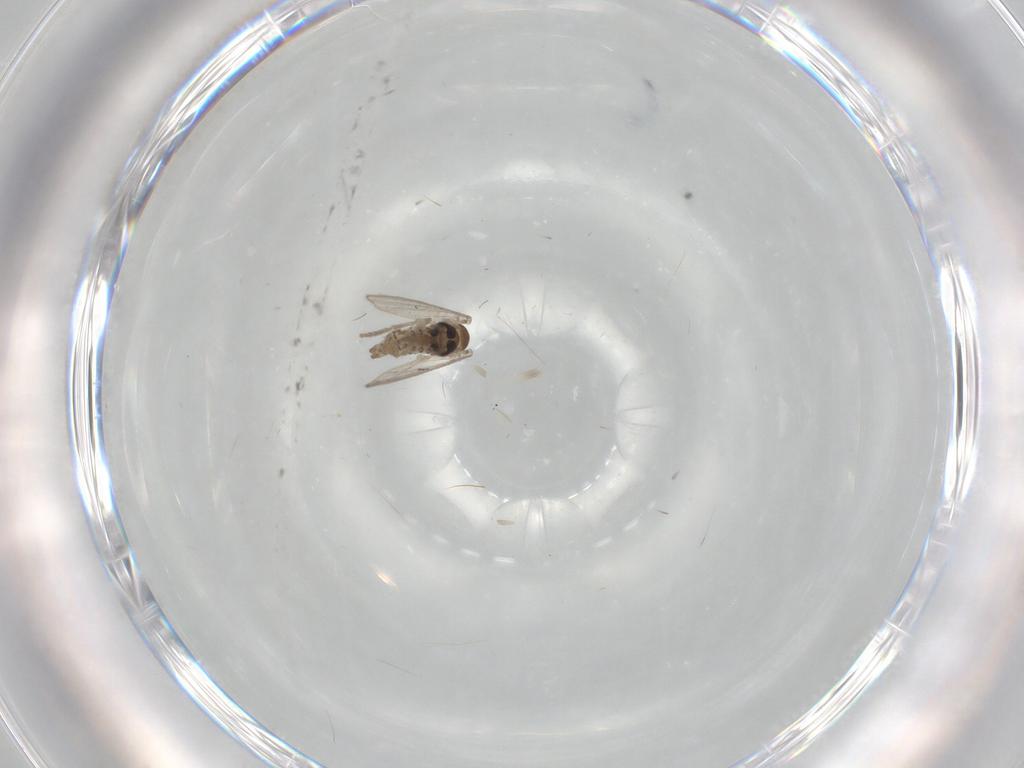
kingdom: Animalia
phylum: Arthropoda
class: Insecta
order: Diptera
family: Psychodidae
